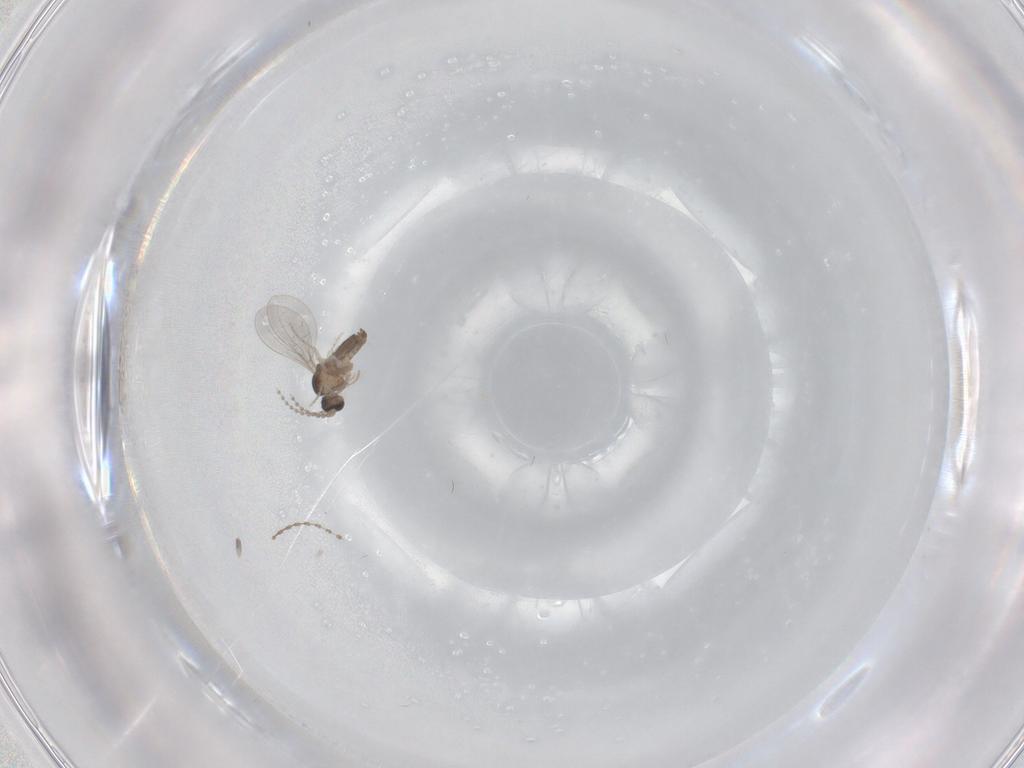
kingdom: Animalia
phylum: Arthropoda
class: Insecta
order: Diptera
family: Cecidomyiidae
